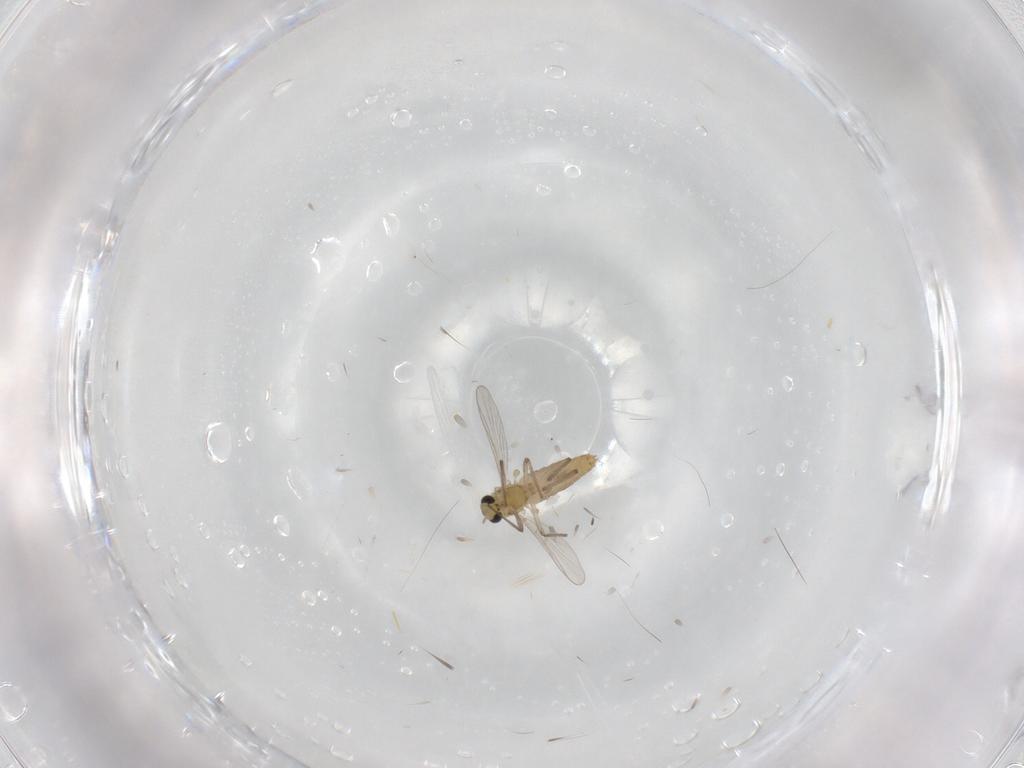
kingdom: Animalia
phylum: Arthropoda
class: Insecta
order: Diptera
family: Chironomidae
